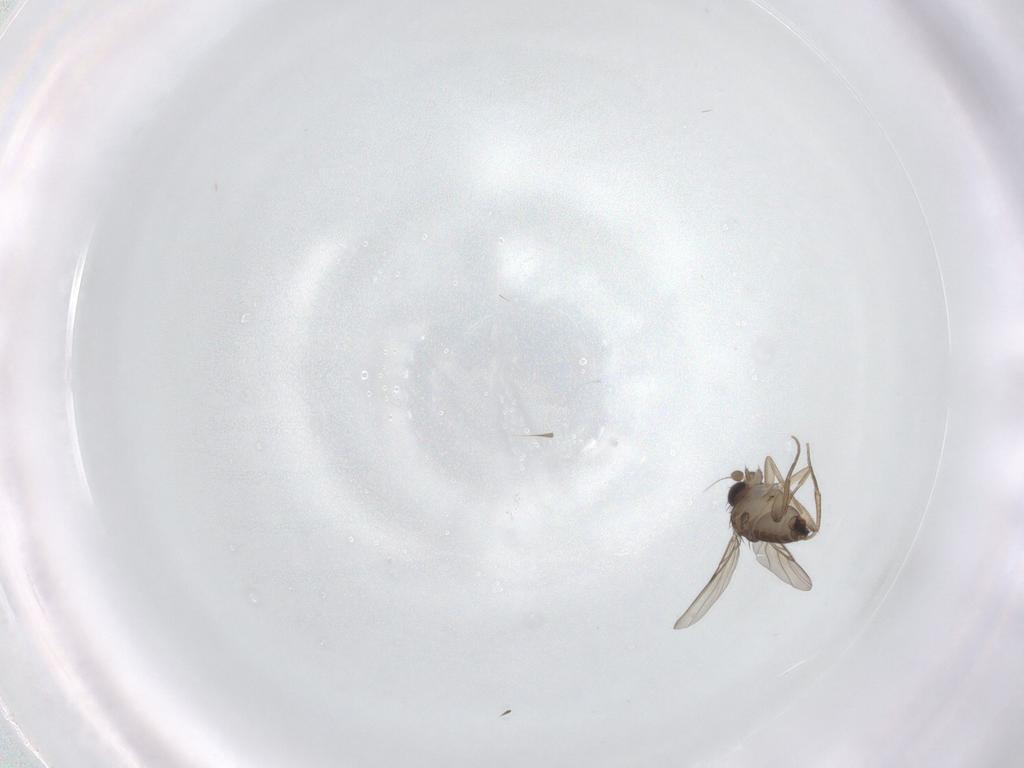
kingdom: Animalia
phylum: Arthropoda
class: Insecta
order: Diptera
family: Phoridae
